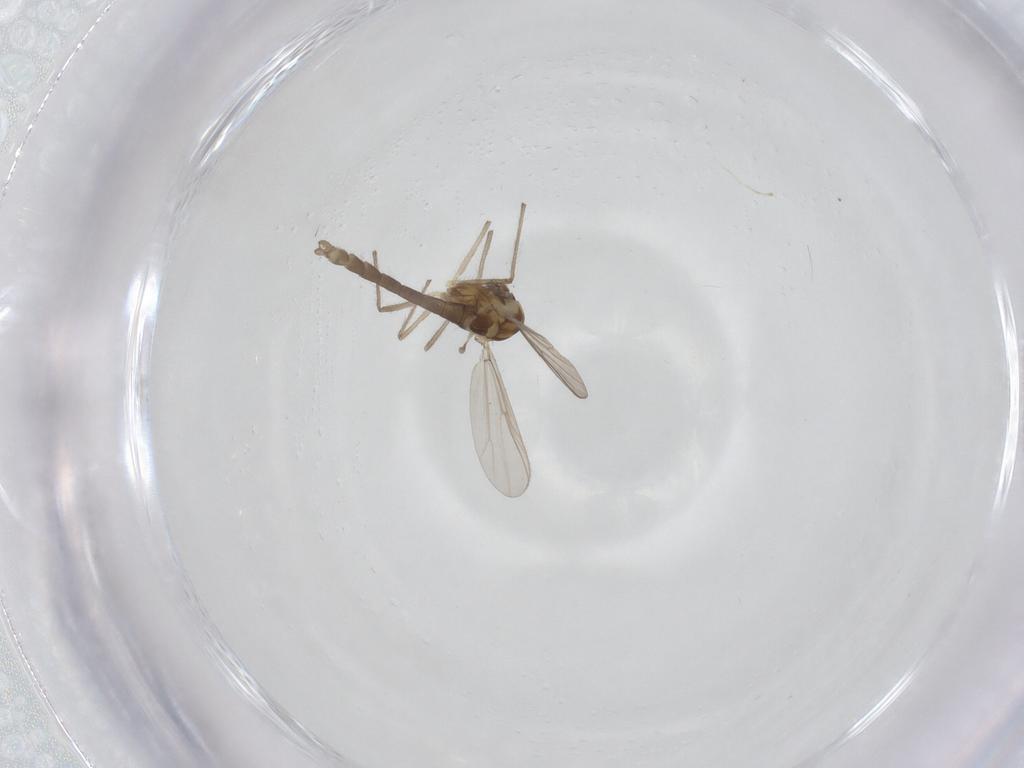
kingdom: Animalia
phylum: Arthropoda
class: Insecta
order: Diptera
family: Chironomidae
